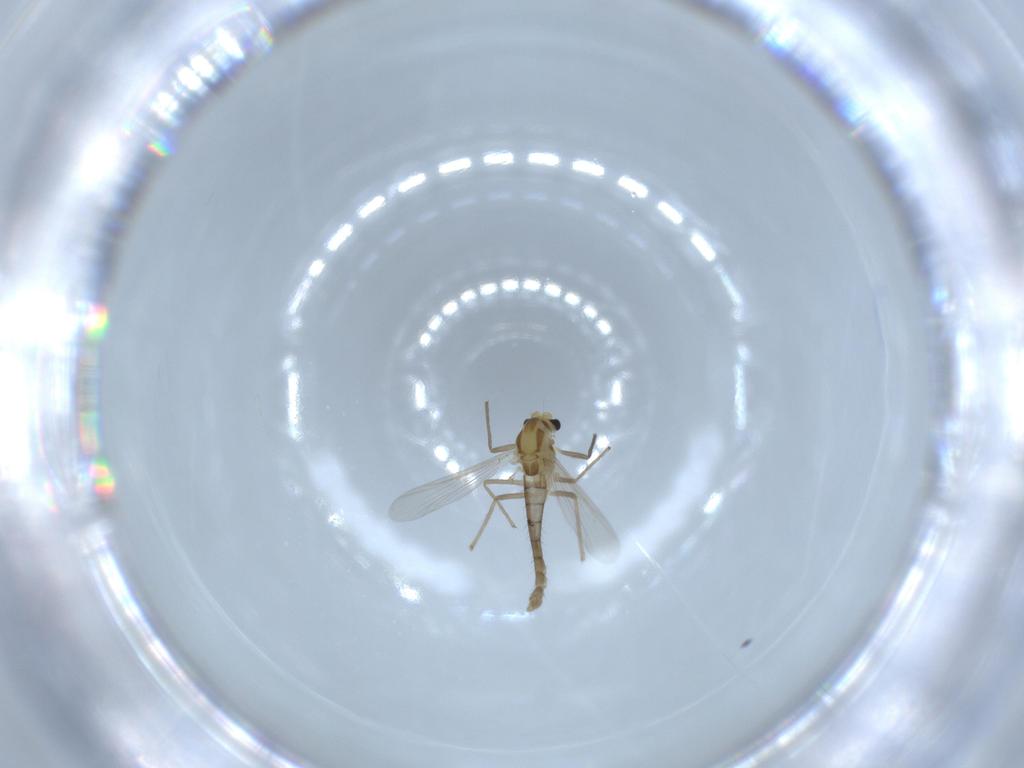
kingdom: Animalia
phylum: Arthropoda
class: Insecta
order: Diptera
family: Chironomidae
